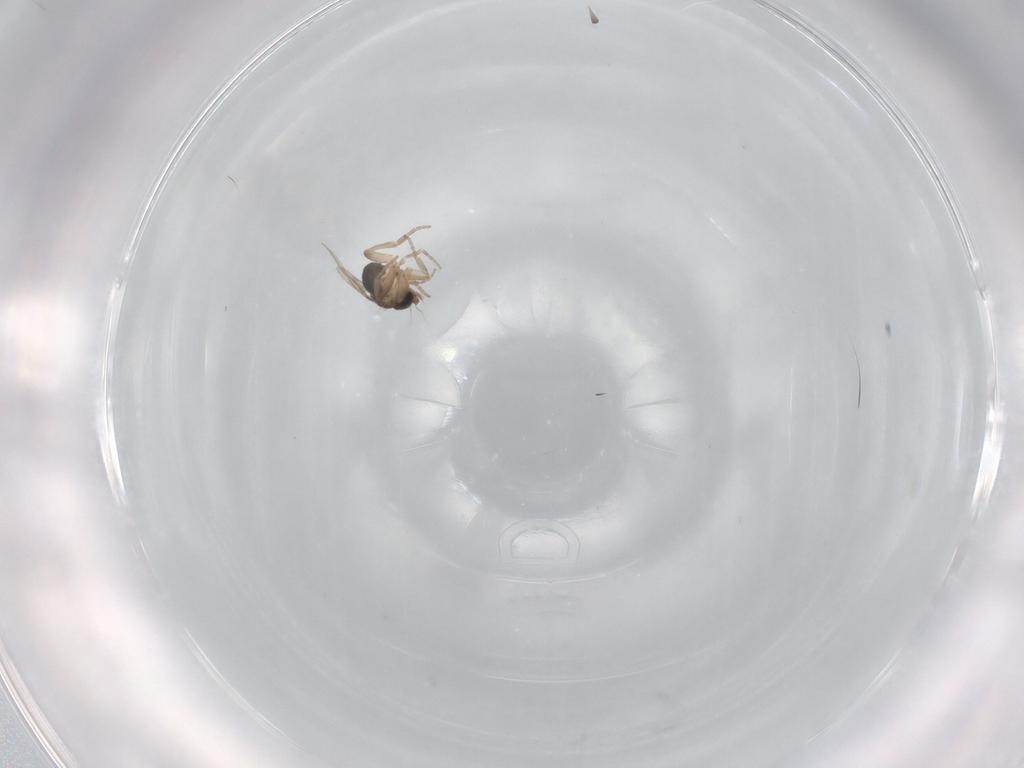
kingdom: Animalia
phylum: Arthropoda
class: Insecta
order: Diptera
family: Phoridae
